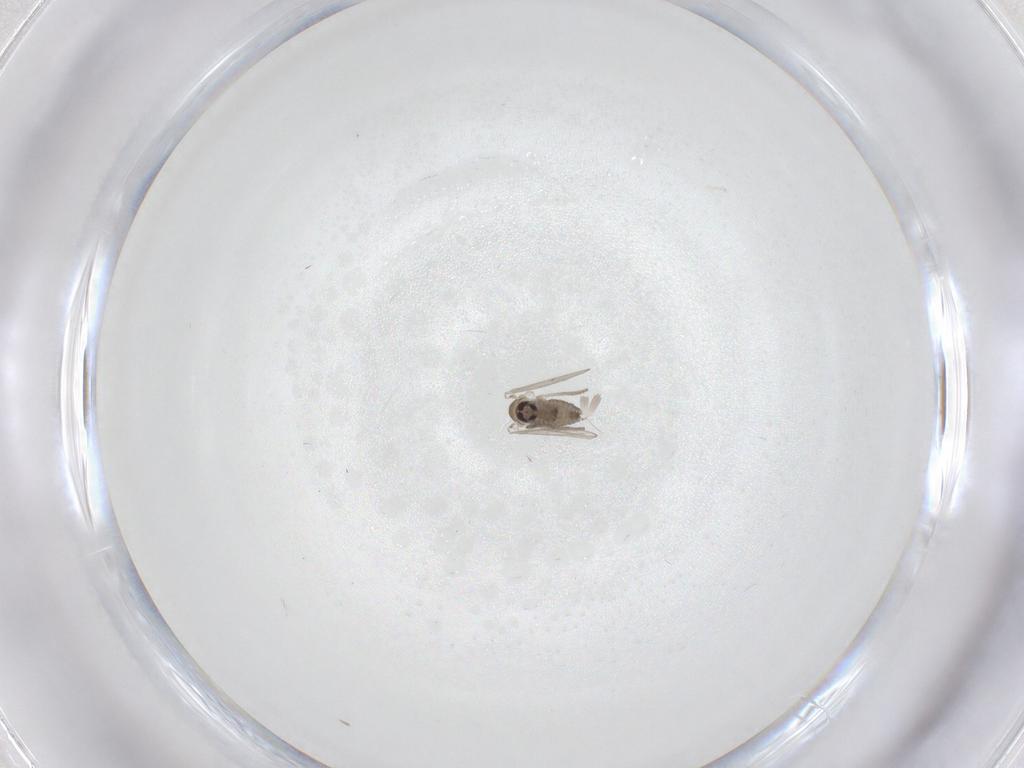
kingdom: Animalia
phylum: Arthropoda
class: Insecta
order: Diptera
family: Psychodidae
